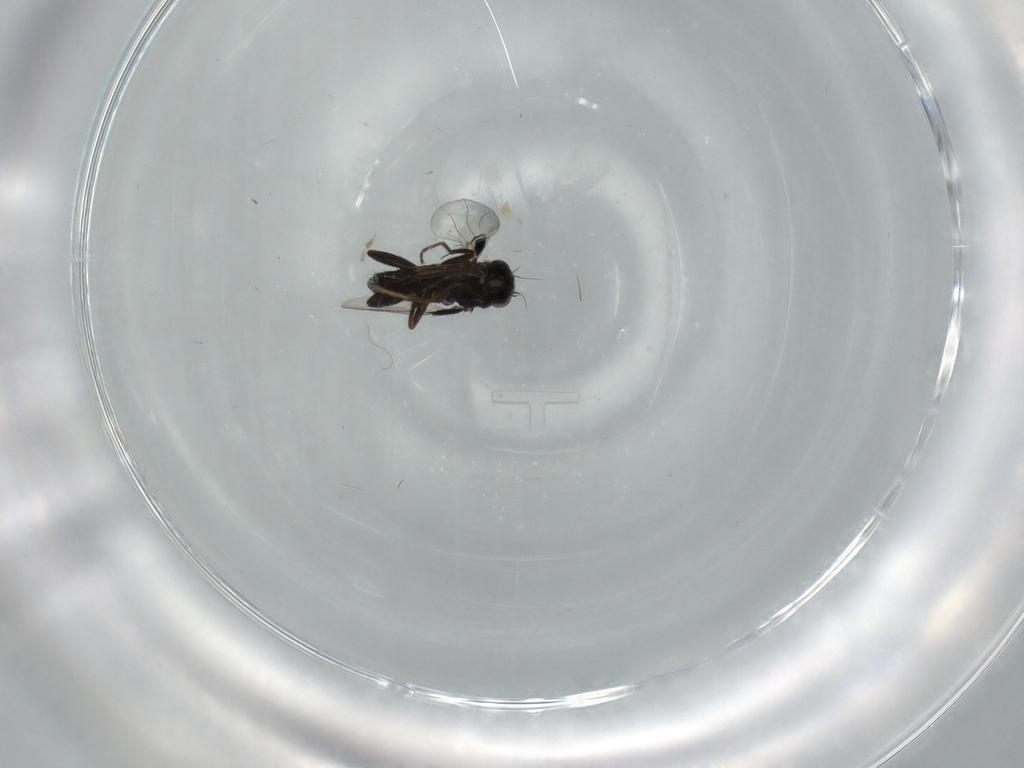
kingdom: Animalia
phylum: Arthropoda
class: Insecta
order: Diptera
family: Phoridae
